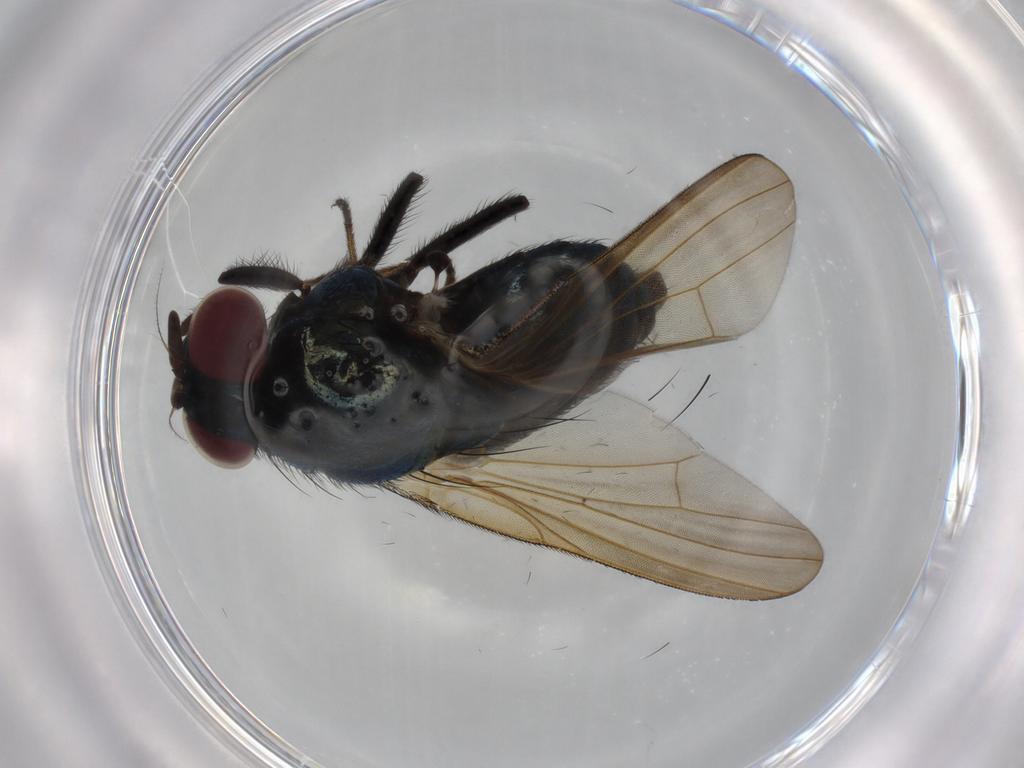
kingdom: Animalia
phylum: Arthropoda
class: Insecta
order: Diptera
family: Lonchaeidae
